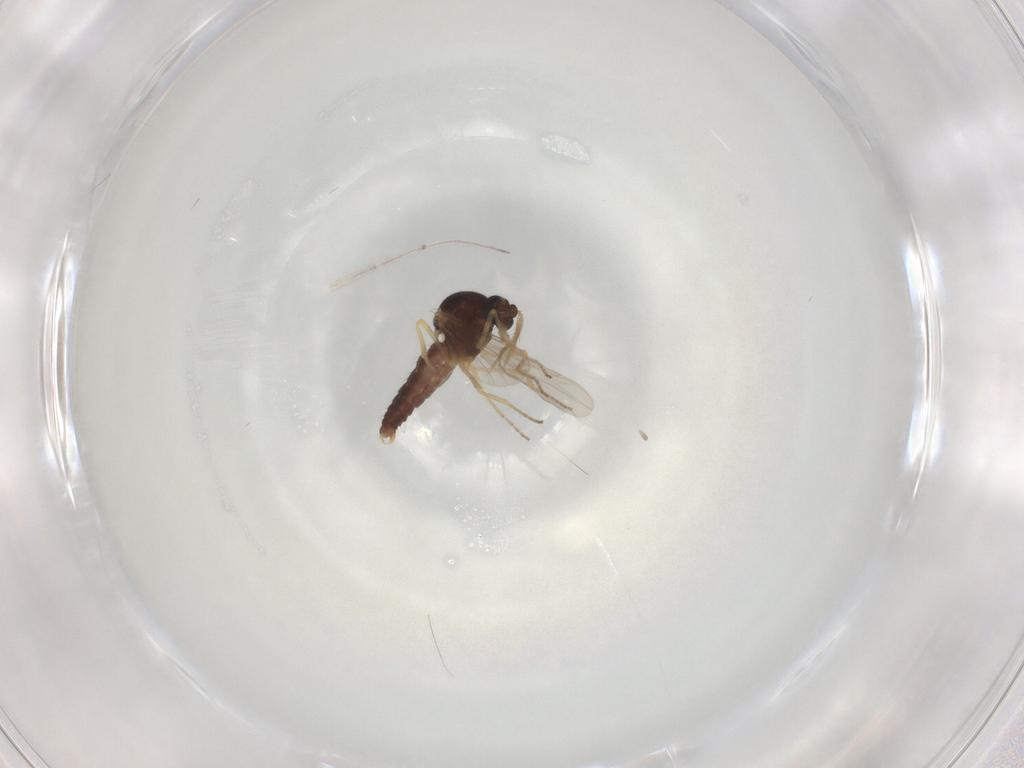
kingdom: Animalia
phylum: Arthropoda
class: Insecta
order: Diptera
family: Ceratopogonidae
